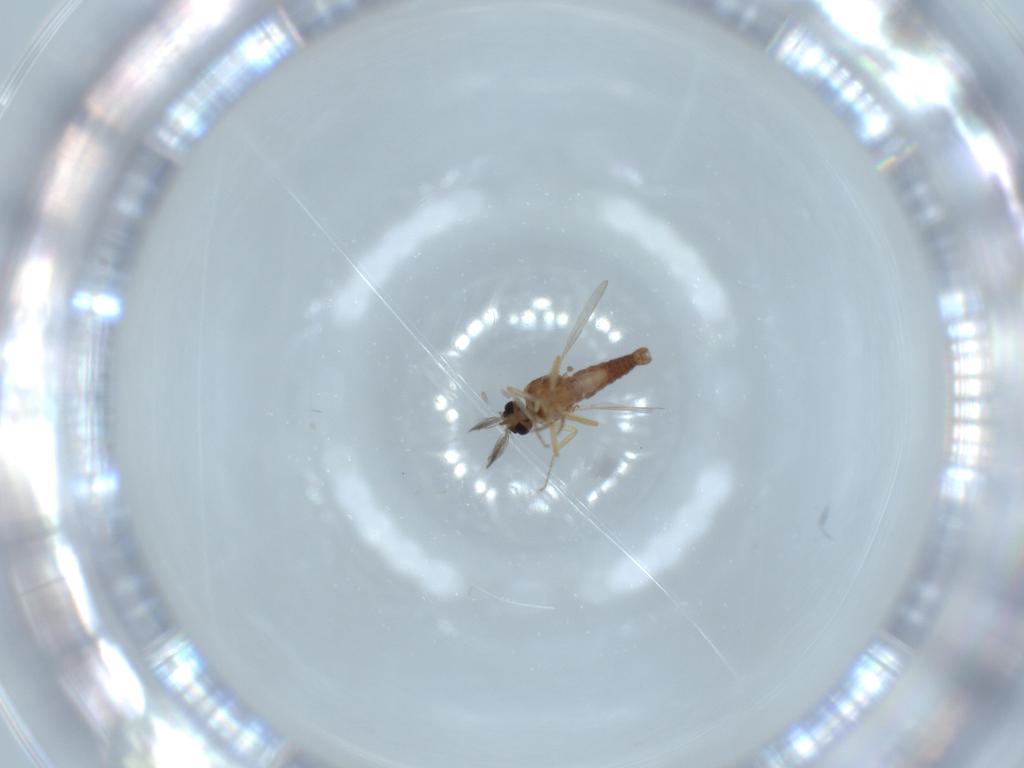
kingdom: Animalia
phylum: Arthropoda
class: Insecta
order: Diptera
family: Ceratopogonidae
